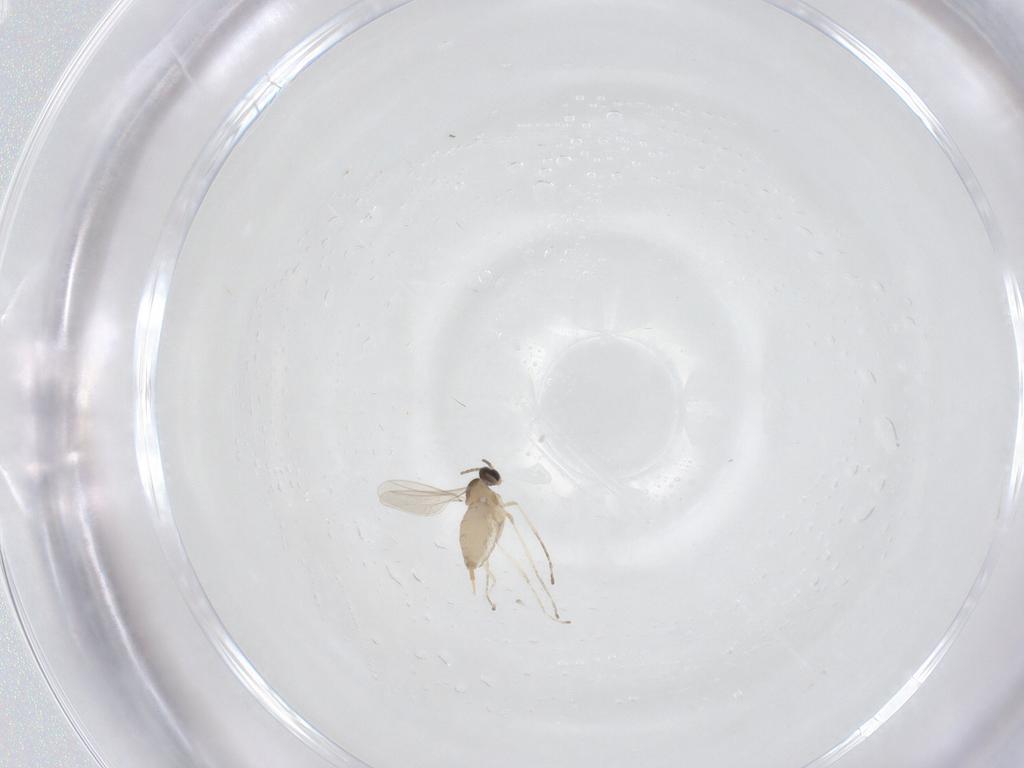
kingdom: Animalia
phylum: Arthropoda
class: Insecta
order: Diptera
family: Sciaridae
